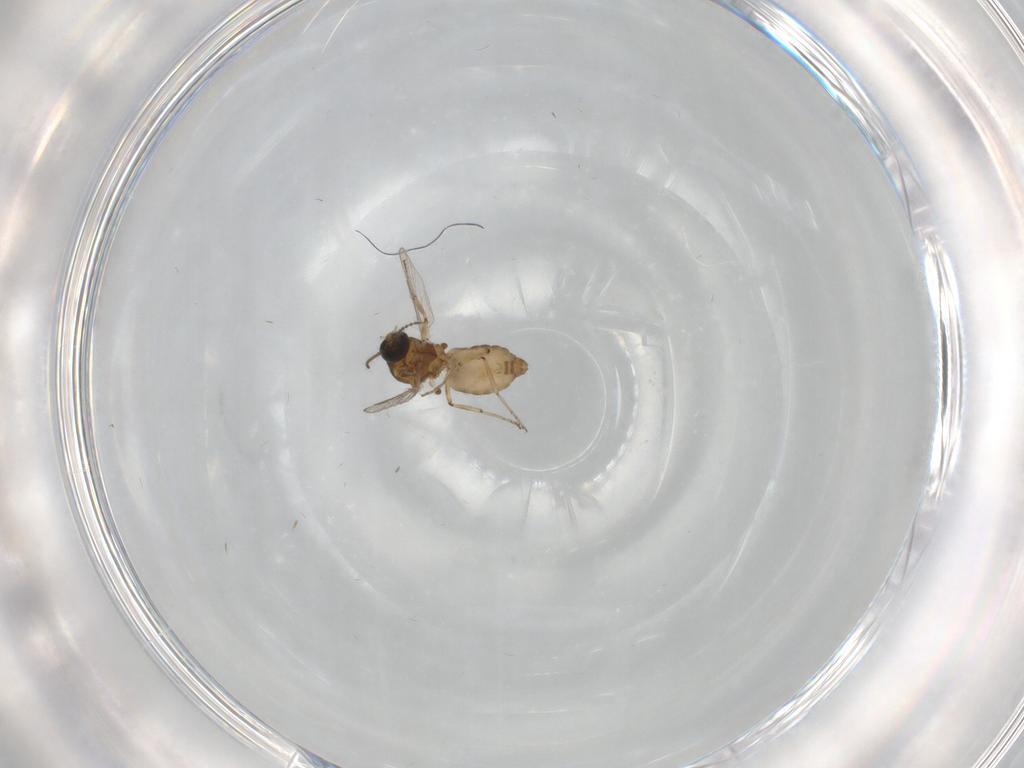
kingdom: Animalia
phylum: Arthropoda
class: Insecta
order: Diptera
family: Ceratopogonidae
